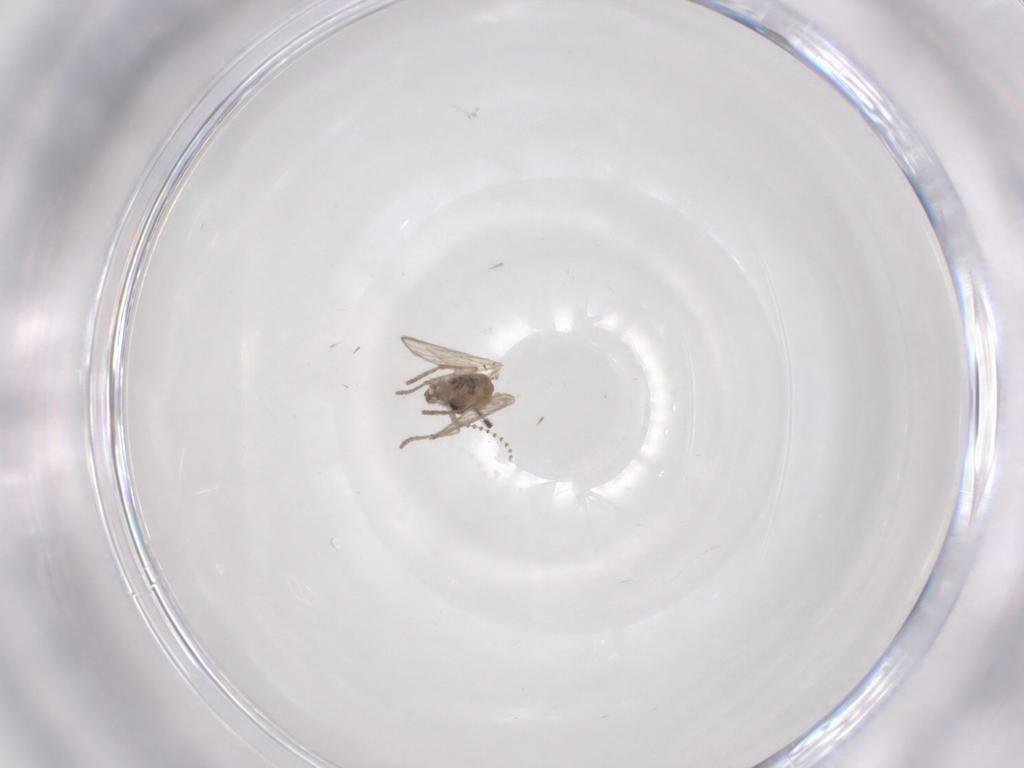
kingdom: Animalia
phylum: Arthropoda
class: Insecta
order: Diptera
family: Psychodidae
